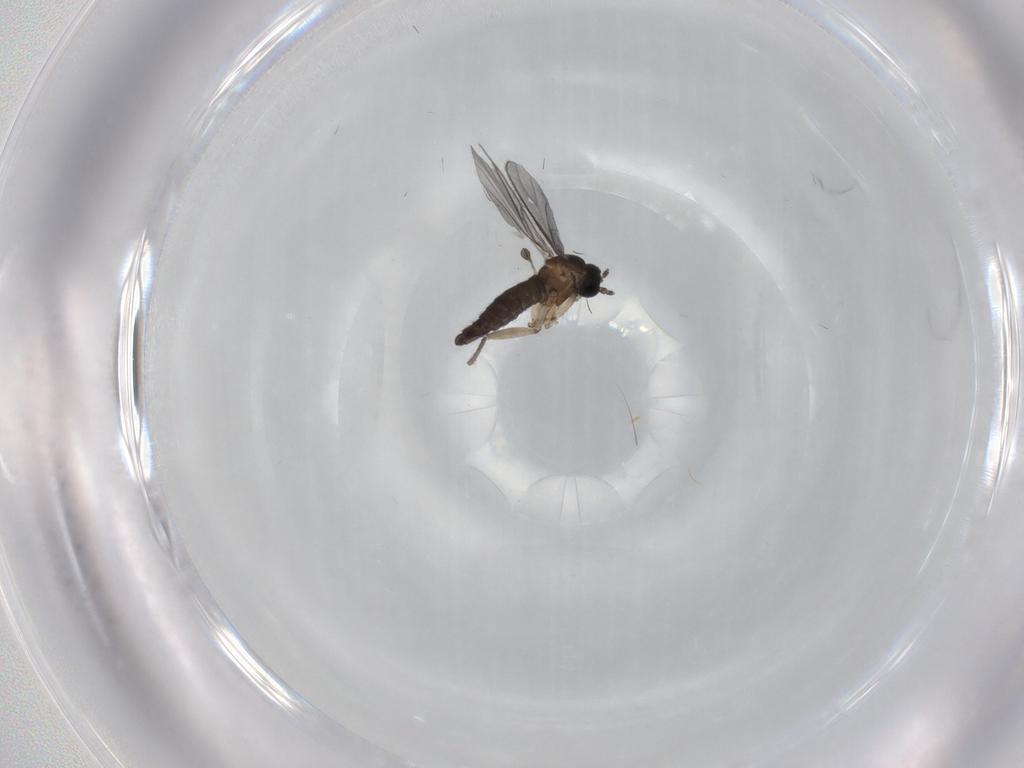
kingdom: Animalia
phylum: Arthropoda
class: Insecta
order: Diptera
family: Sciaridae
